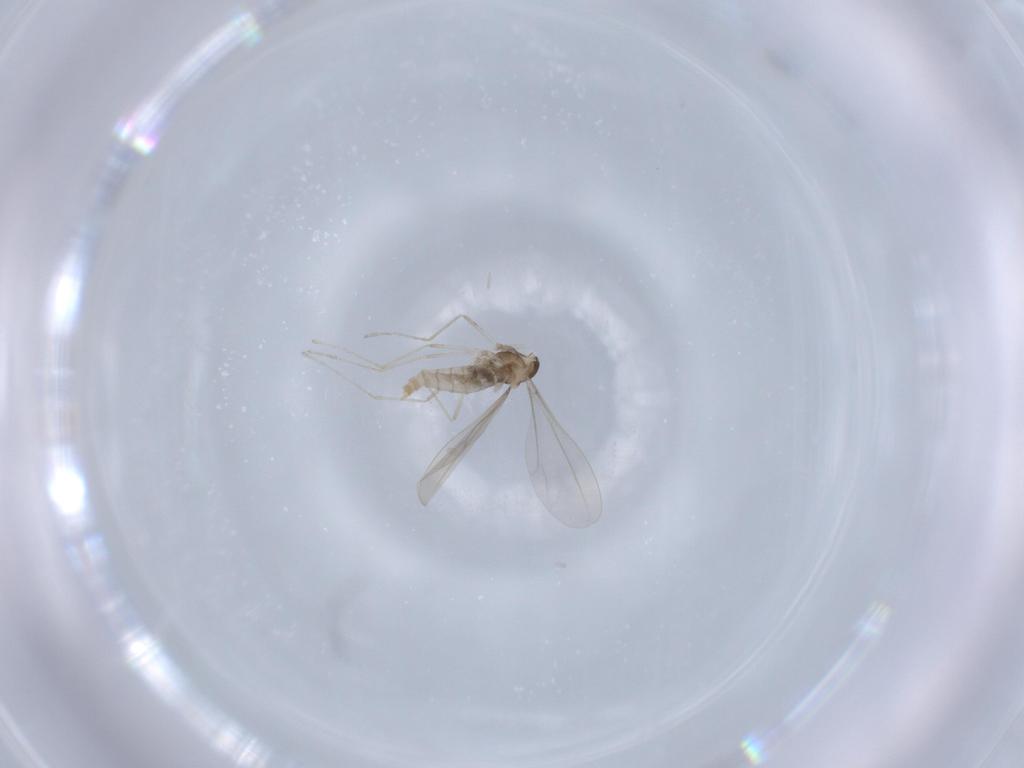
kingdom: Animalia
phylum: Arthropoda
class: Insecta
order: Diptera
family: Cecidomyiidae
